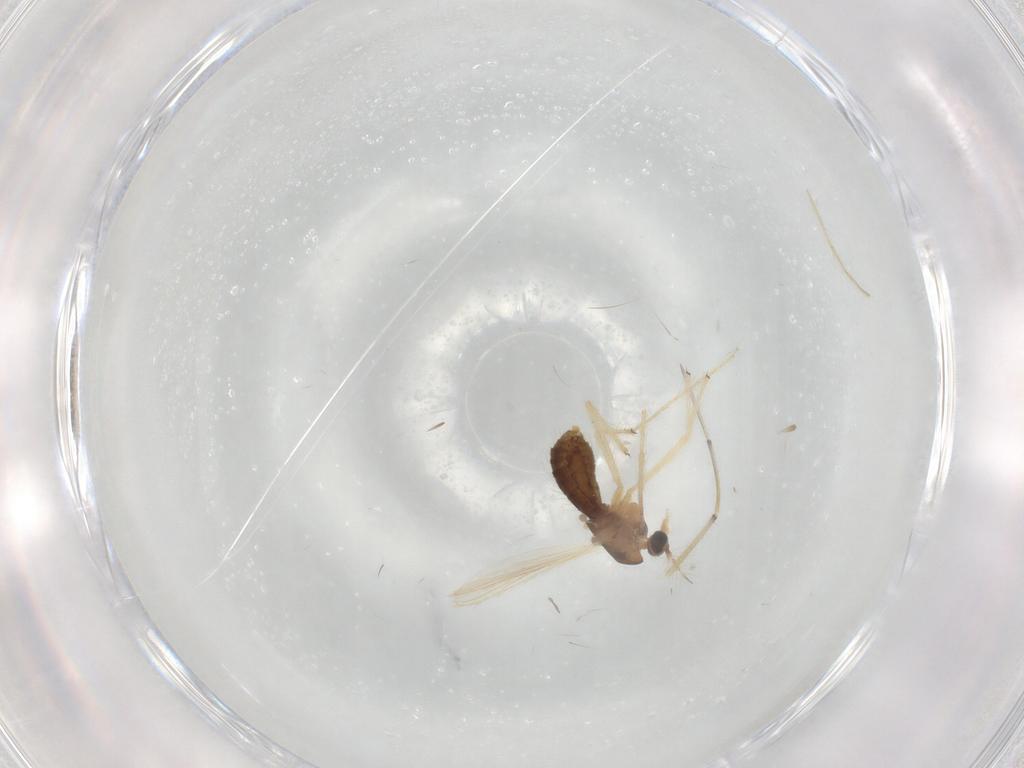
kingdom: Animalia
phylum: Arthropoda
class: Insecta
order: Diptera
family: Chironomidae
